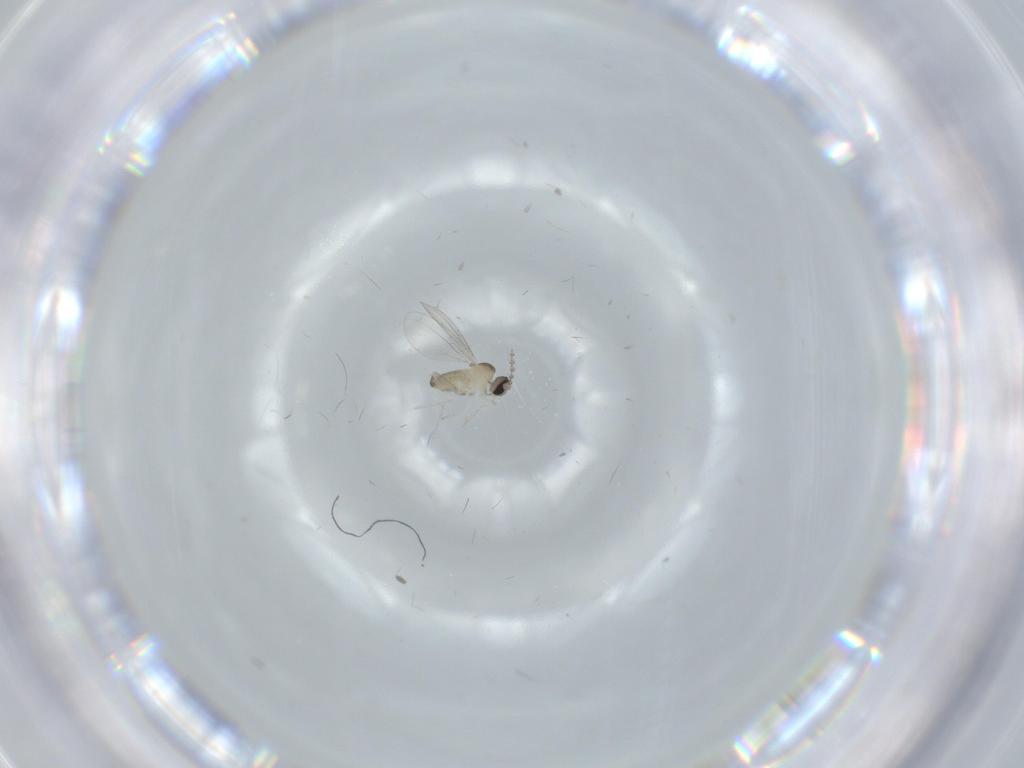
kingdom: Animalia
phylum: Arthropoda
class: Insecta
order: Diptera
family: Cecidomyiidae
